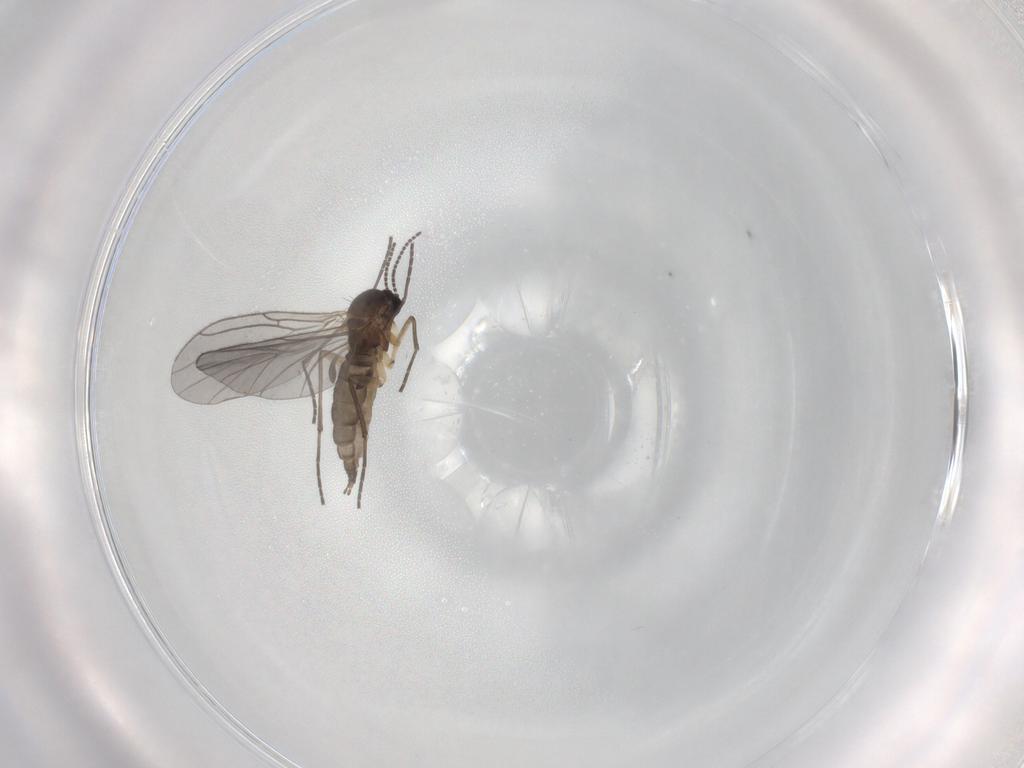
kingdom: Animalia
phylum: Arthropoda
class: Insecta
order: Diptera
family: Sciaridae
